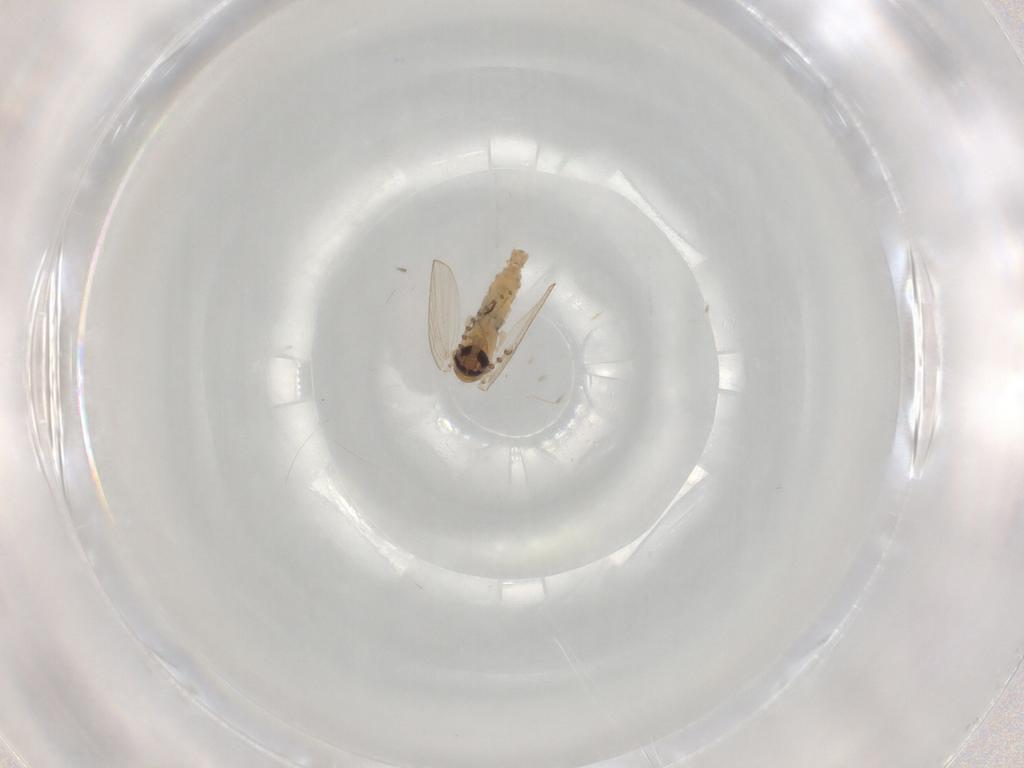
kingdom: Animalia
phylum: Arthropoda
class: Insecta
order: Diptera
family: Psychodidae
